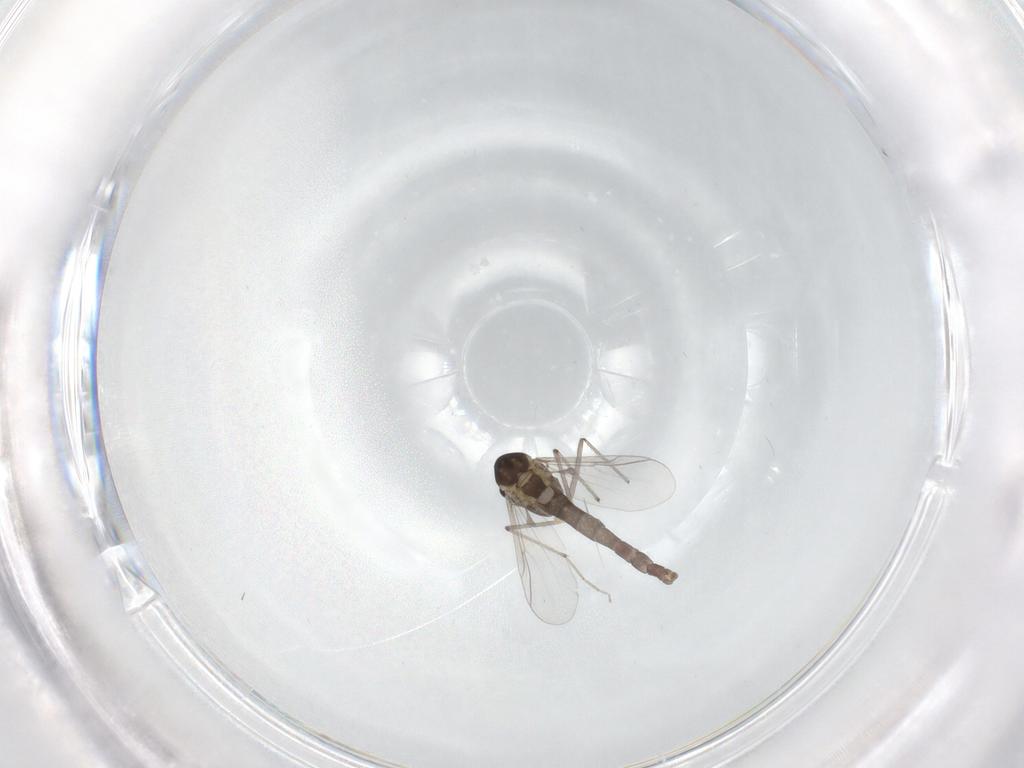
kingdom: Animalia
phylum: Arthropoda
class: Insecta
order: Diptera
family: Chironomidae
